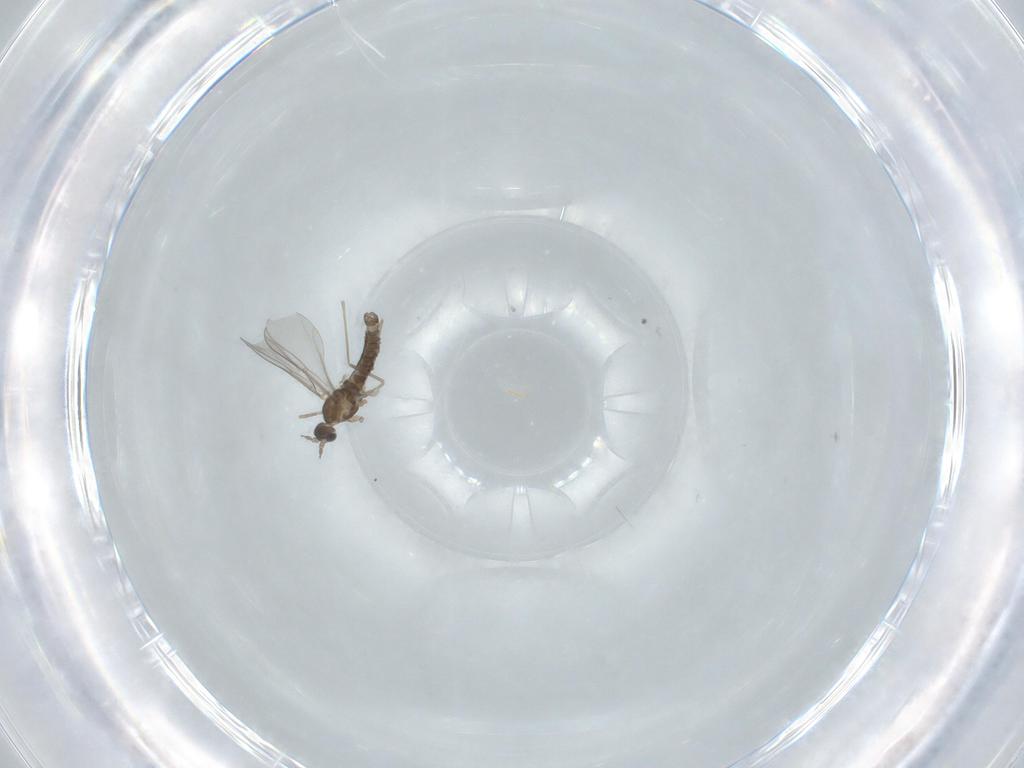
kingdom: Animalia
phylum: Arthropoda
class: Insecta
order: Diptera
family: Cecidomyiidae
